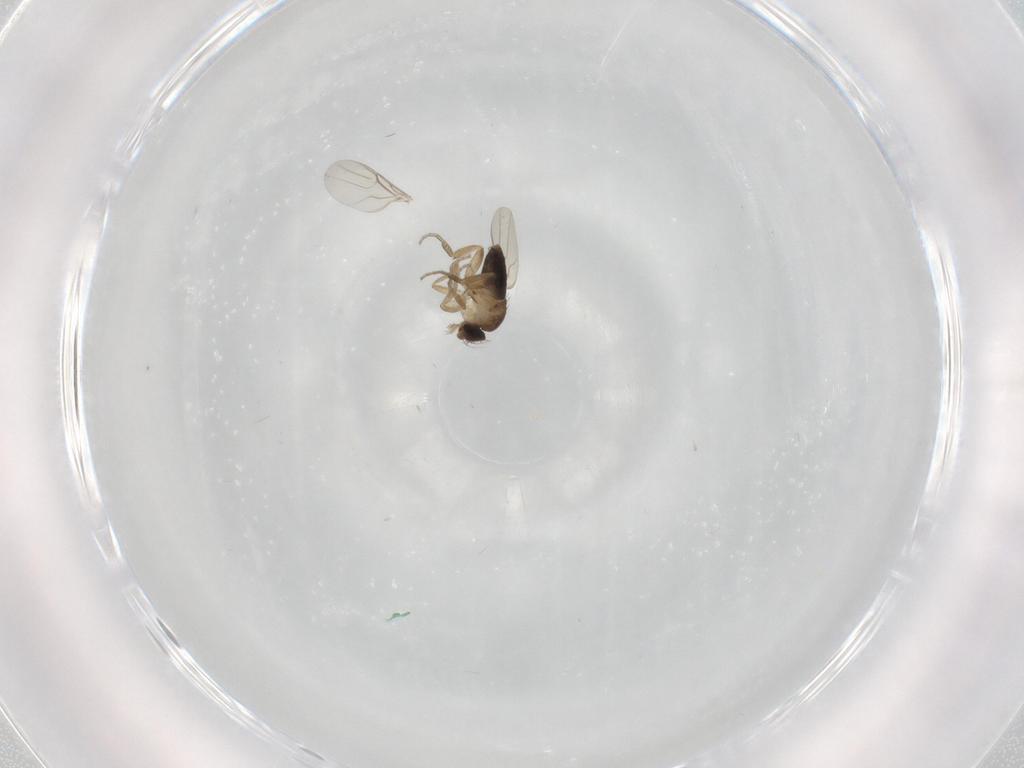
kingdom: Animalia
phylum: Arthropoda
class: Insecta
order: Diptera
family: Phoridae
